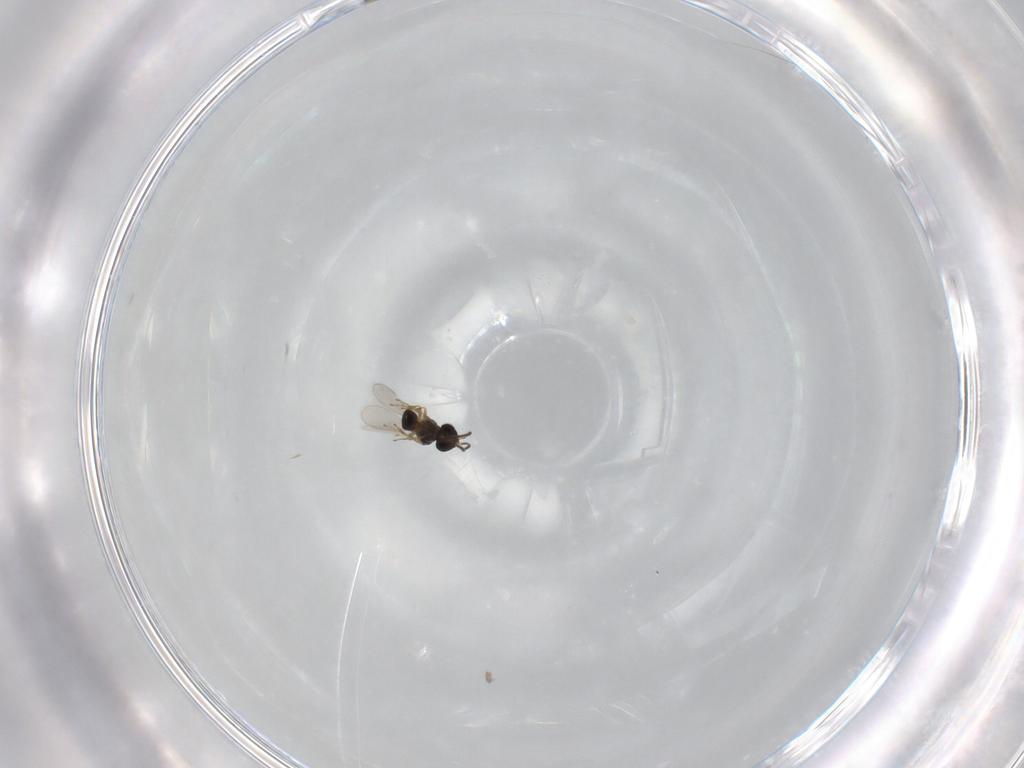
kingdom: Animalia
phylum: Arthropoda
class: Insecta
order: Hymenoptera
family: Scelionidae
